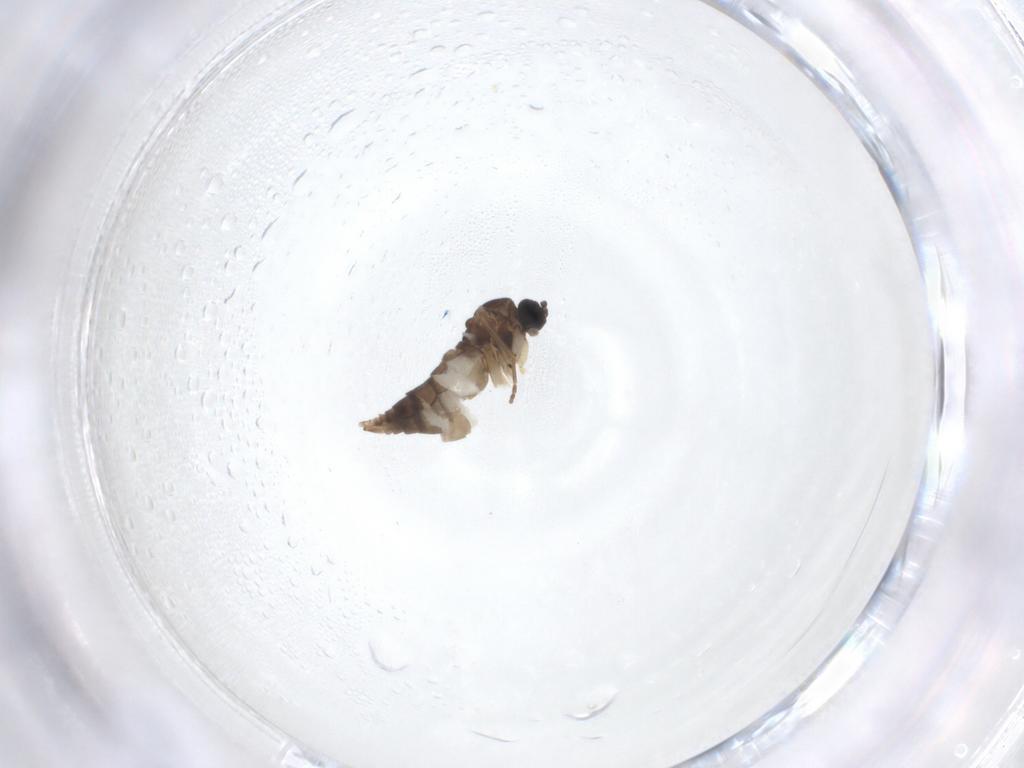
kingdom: Animalia
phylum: Arthropoda
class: Insecta
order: Diptera
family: Sciaridae
